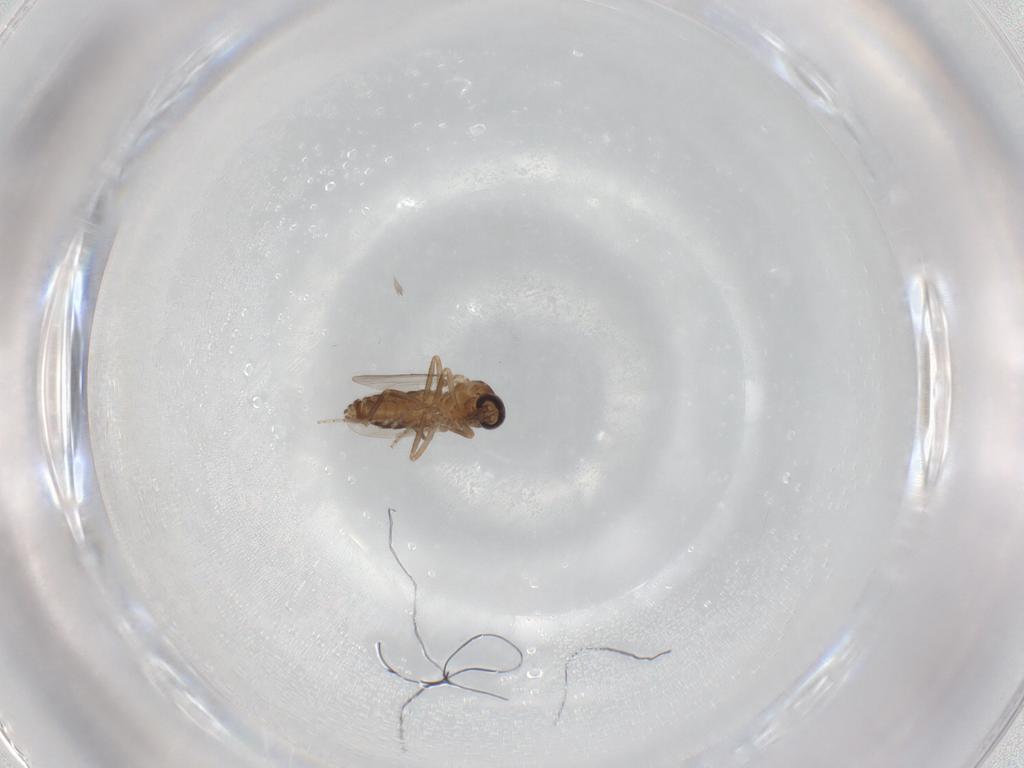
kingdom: Animalia
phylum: Arthropoda
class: Insecta
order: Diptera
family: Ceratopogonidae
